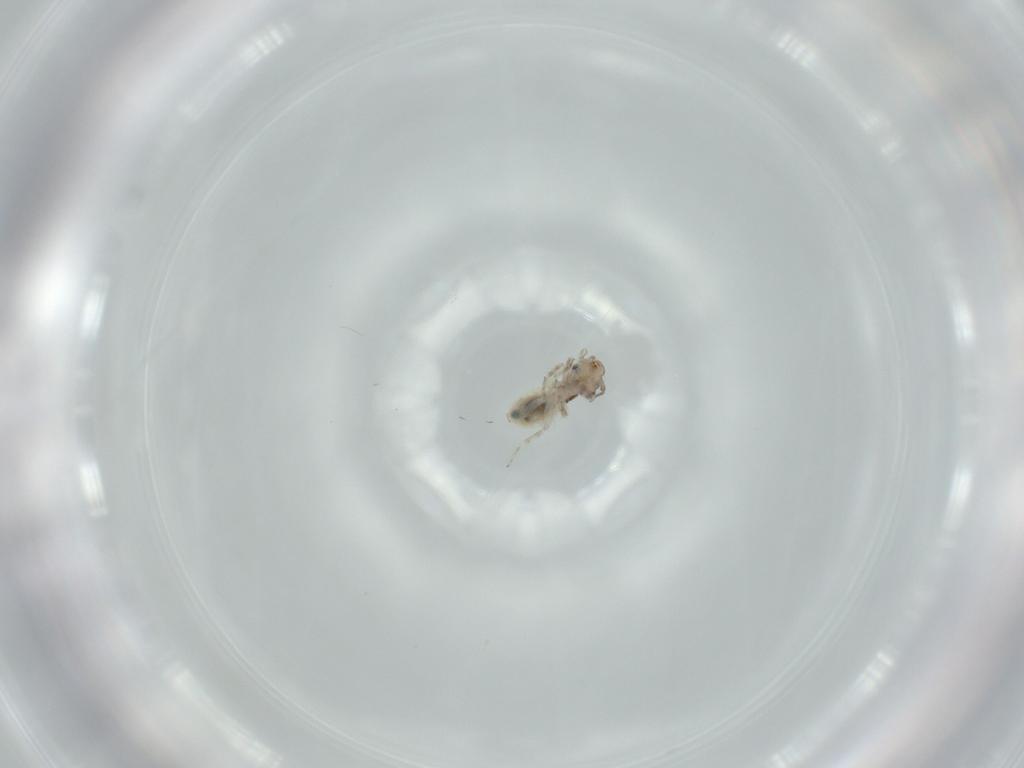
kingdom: Animalia
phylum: Arthropoda
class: Insecta
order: Psocodea
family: Lepidopsocidae
